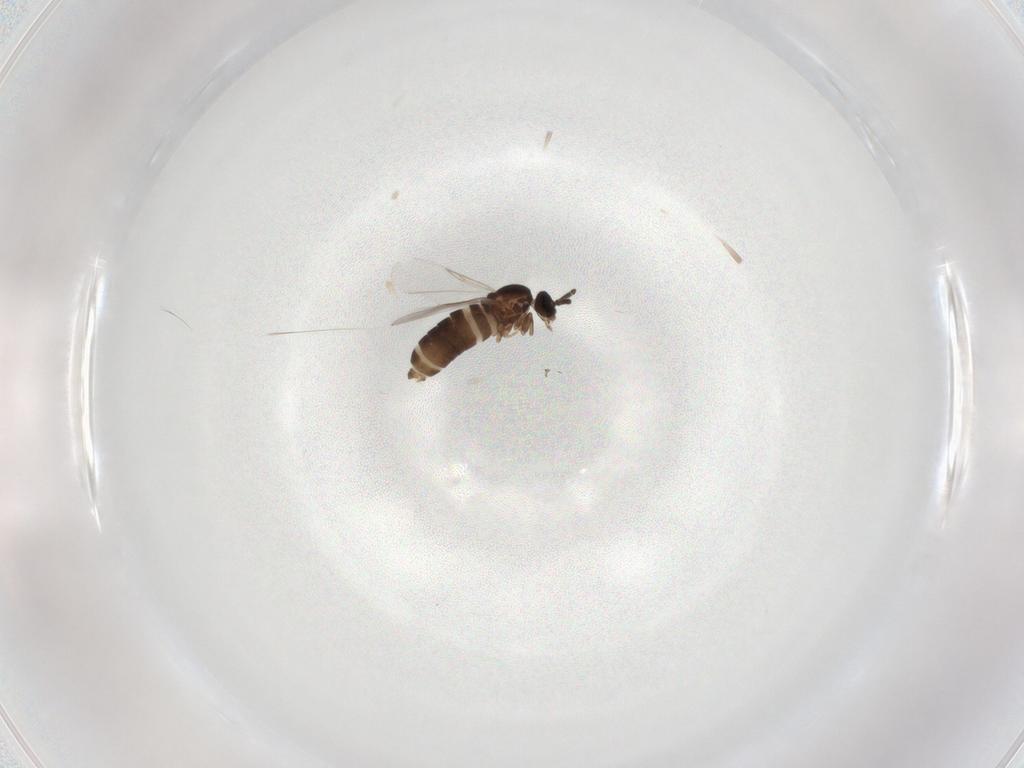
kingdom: Animalia
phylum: Arthropoda
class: Insecta
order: Diptera
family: Scatopsidae
